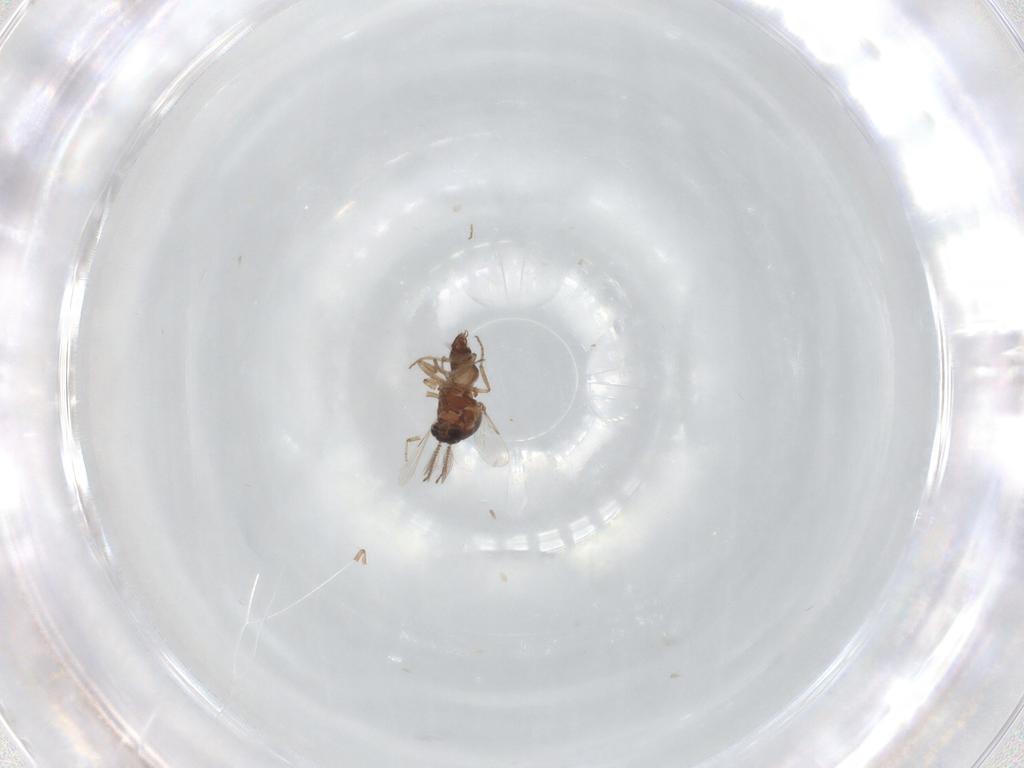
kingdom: Animalia
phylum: Arthropoda
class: Insecta
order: Diptera
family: Ceratopogonidae
